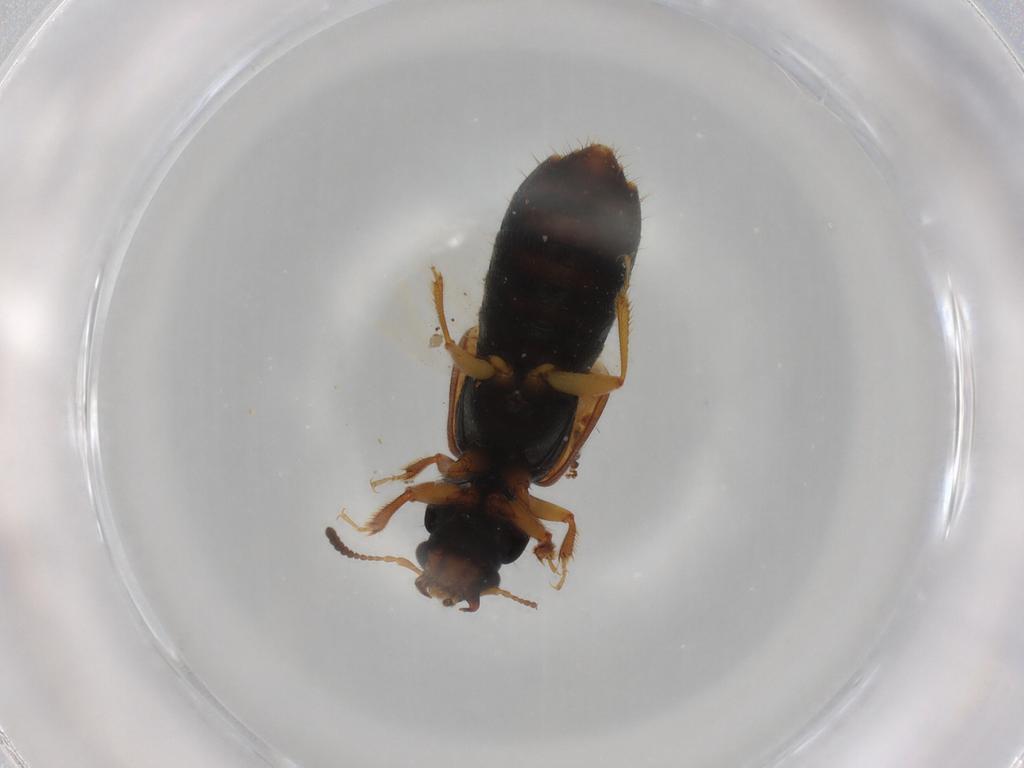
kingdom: Animalia
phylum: Arthropoda
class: Insecta
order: Coleoptera
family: Staphylinidae
